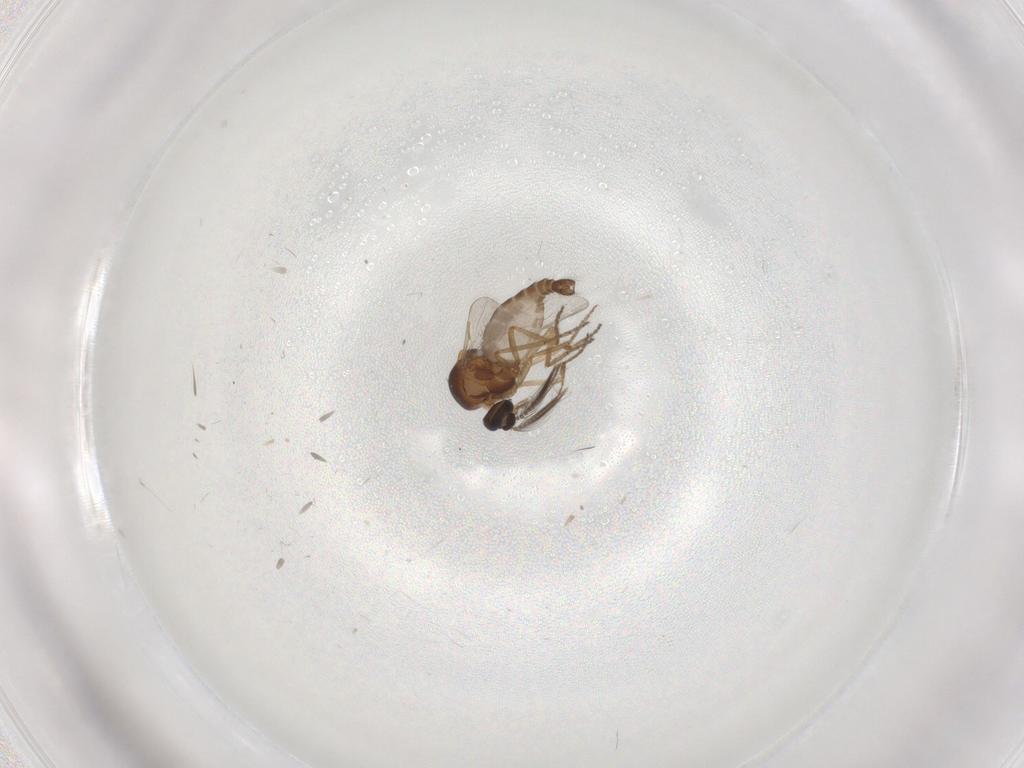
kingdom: Animalia
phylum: Arthropoda
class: Insecta
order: Diptera
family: Ceratopogonidae
